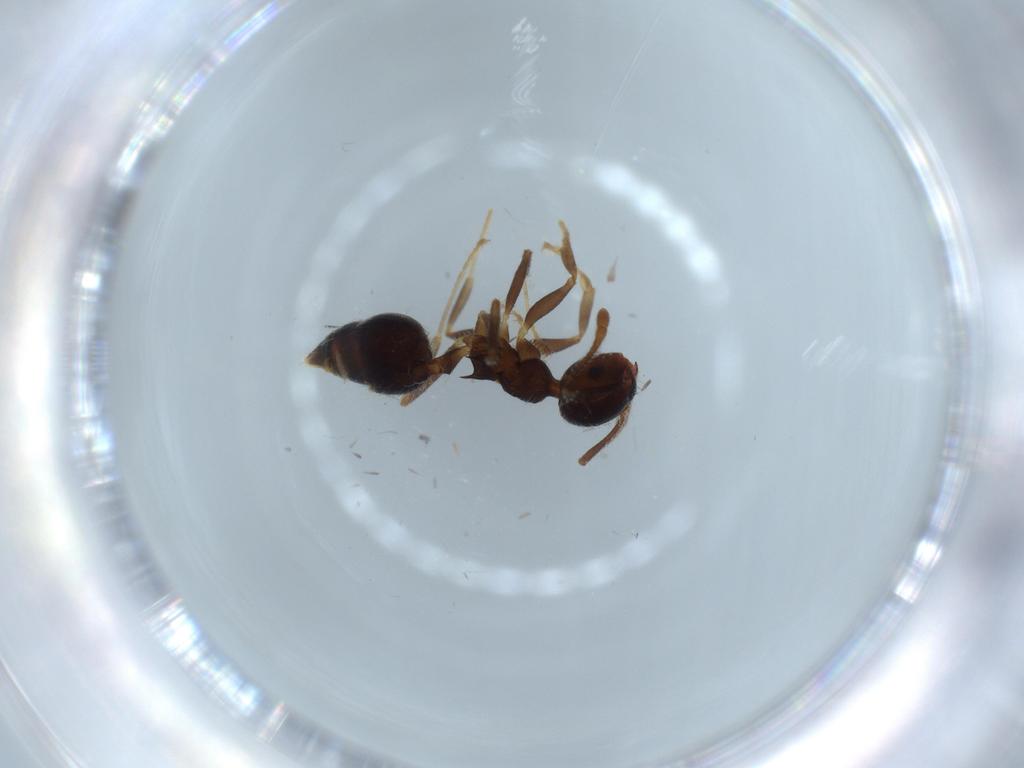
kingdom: Animalia
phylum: Arthropoda
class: Insecta
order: Hymenoptera
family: Formicidae
